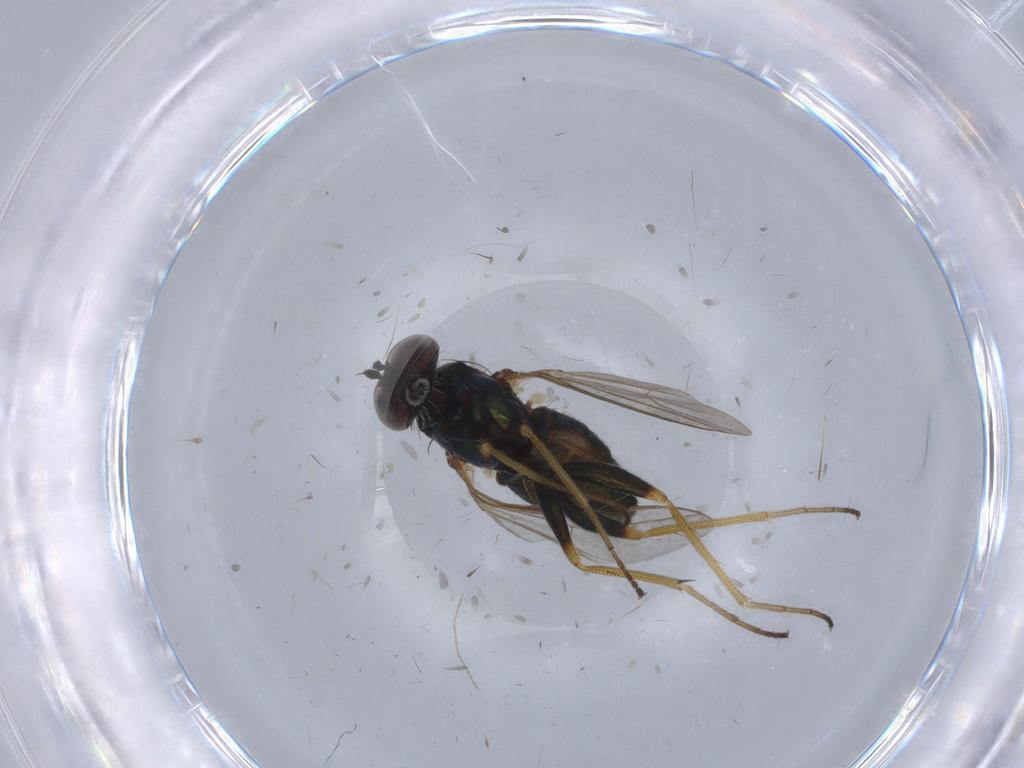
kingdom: Animalia
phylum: Arthropoda
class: Insecta
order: Diptera
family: Dolichopodidae
